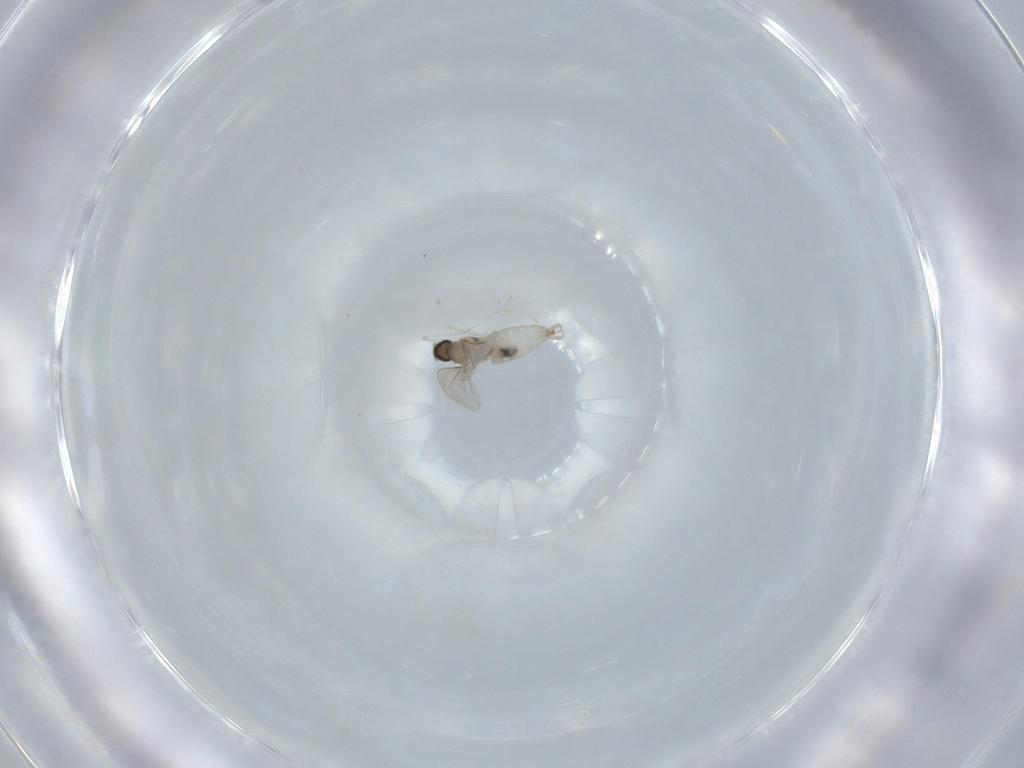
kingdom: Animalia
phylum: Arthropoda
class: Insecta
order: Diptera
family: Cecidomyiidae
